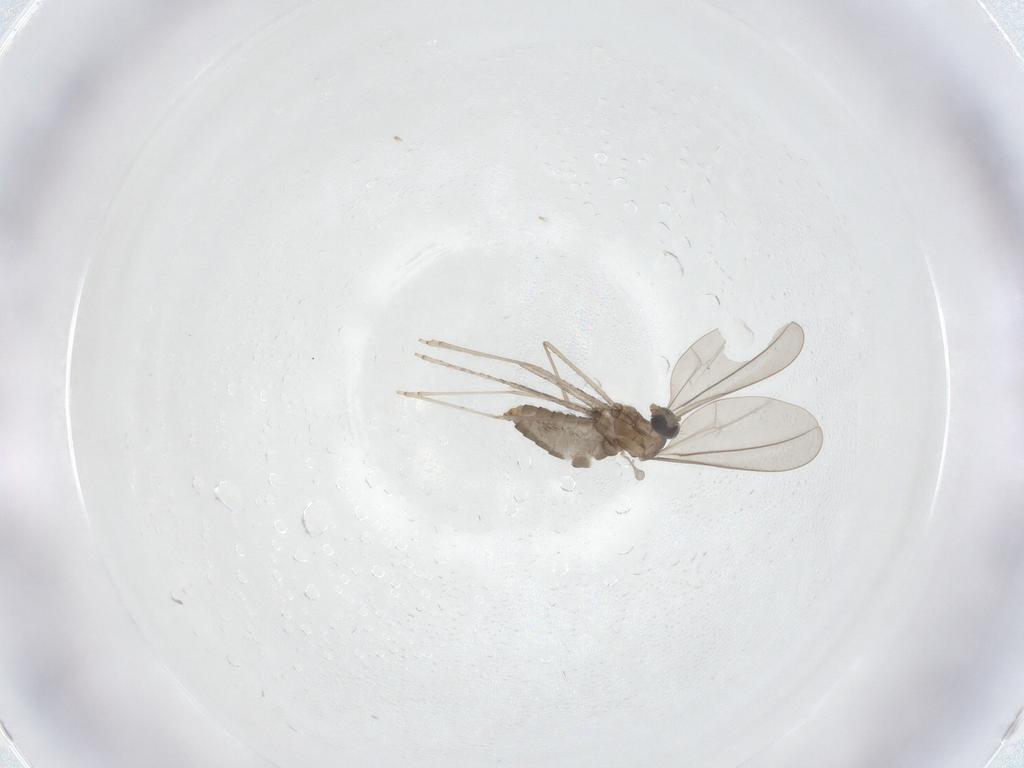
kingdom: Animalia
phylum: Arthropoda
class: Insecta
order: Diptera
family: Cecidomyiidae
